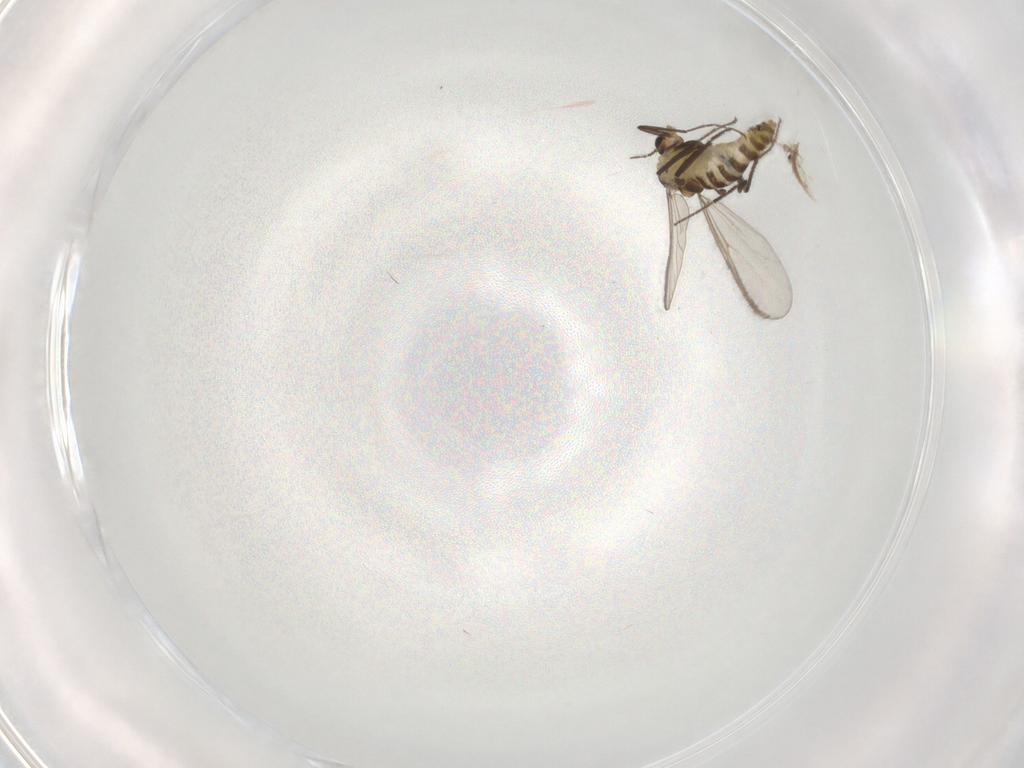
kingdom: Animalia
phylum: Arthropoda
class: Insecta
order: Diptera
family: Chironomidae
